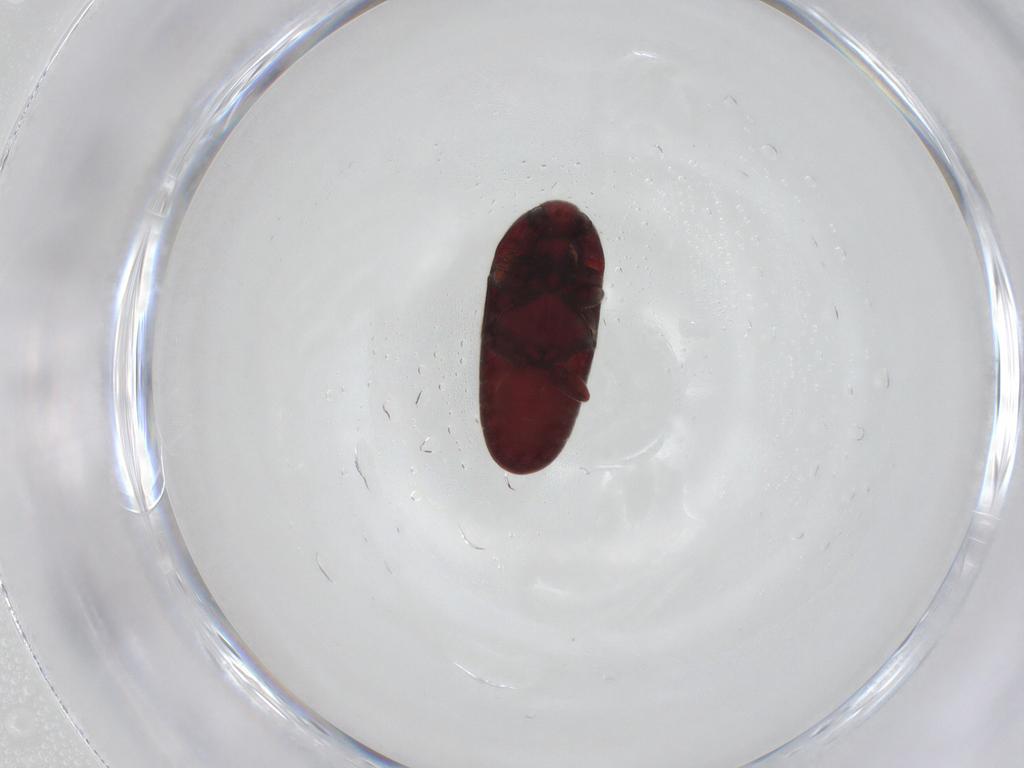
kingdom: Animalia
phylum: Arthropoda
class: Insecta
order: Coleoptera
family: Throscidae
